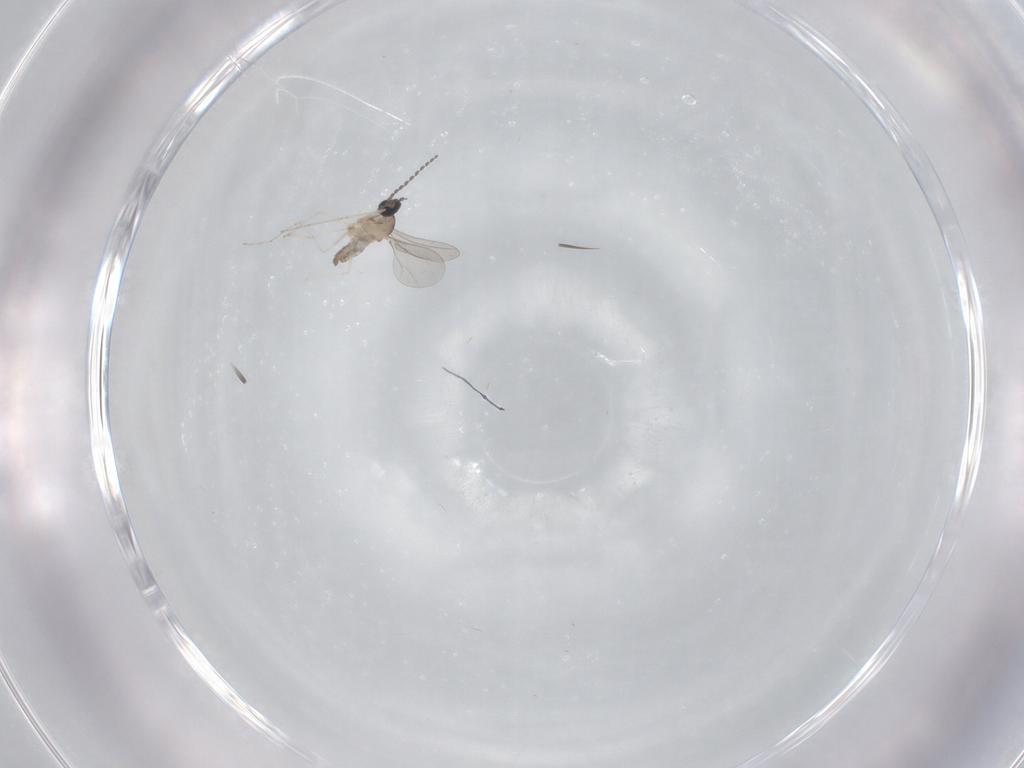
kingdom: Animalia
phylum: Arthropoda
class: Insecta
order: Diptera
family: Cecidomyiidae
